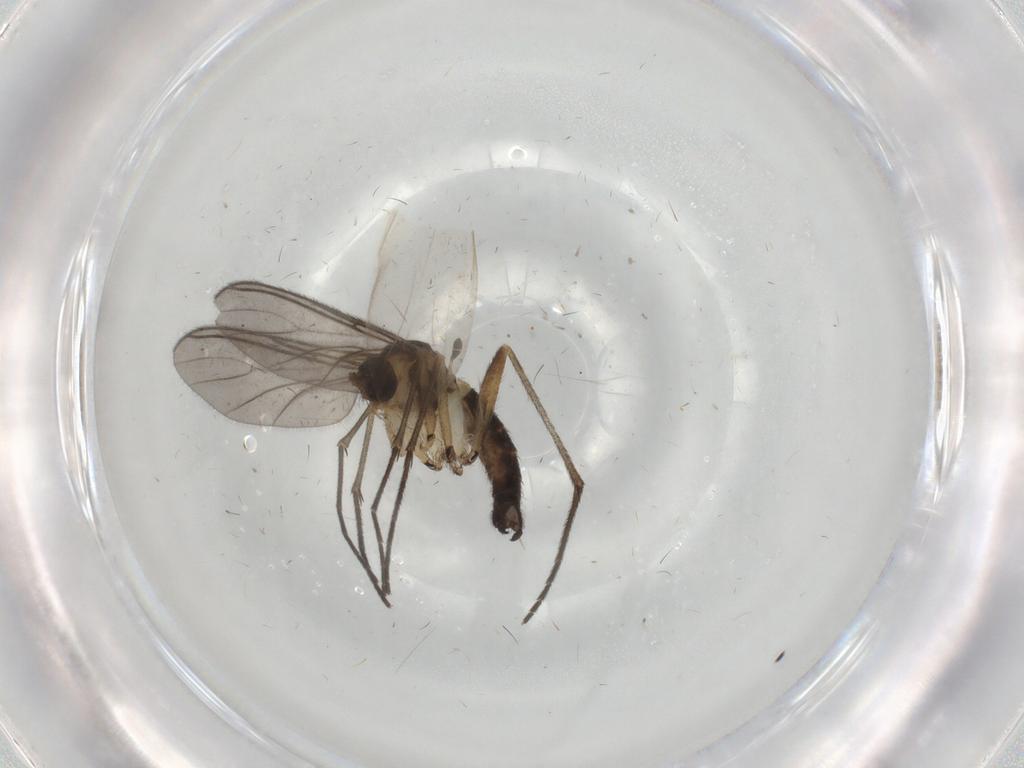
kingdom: Animalia
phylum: Arthropoda
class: Insecta
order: Diptera
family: Sciaridae
